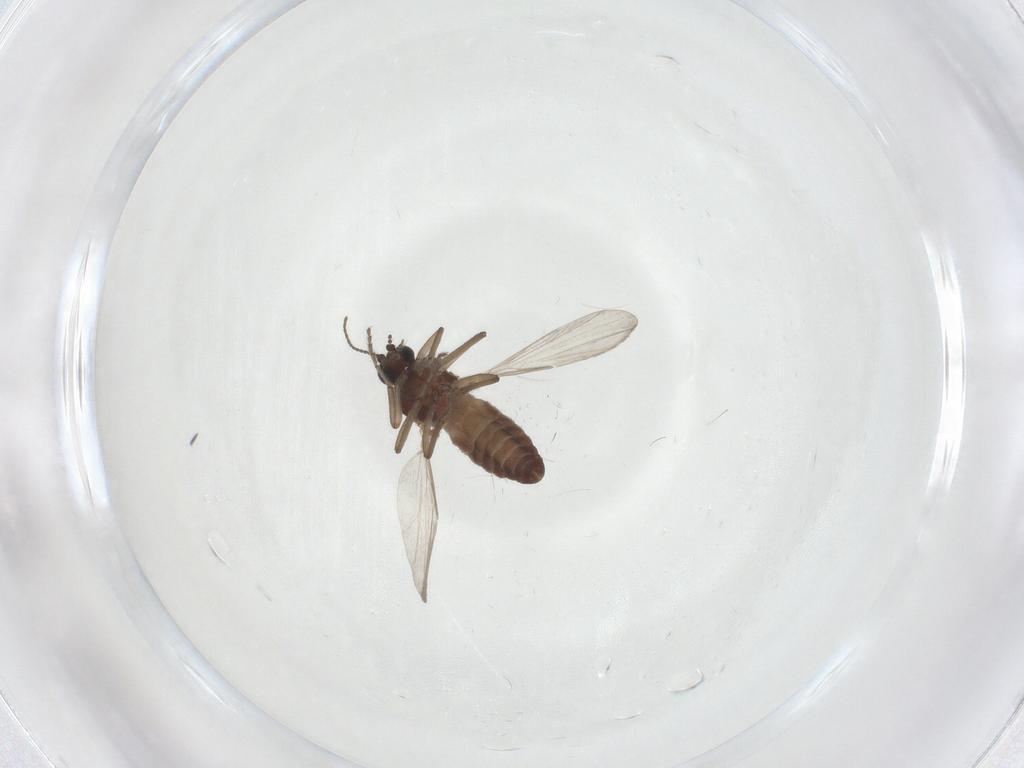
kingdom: Animalia
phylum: Arthropoda
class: Insecta
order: Diptera
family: Ceratopogonidae
